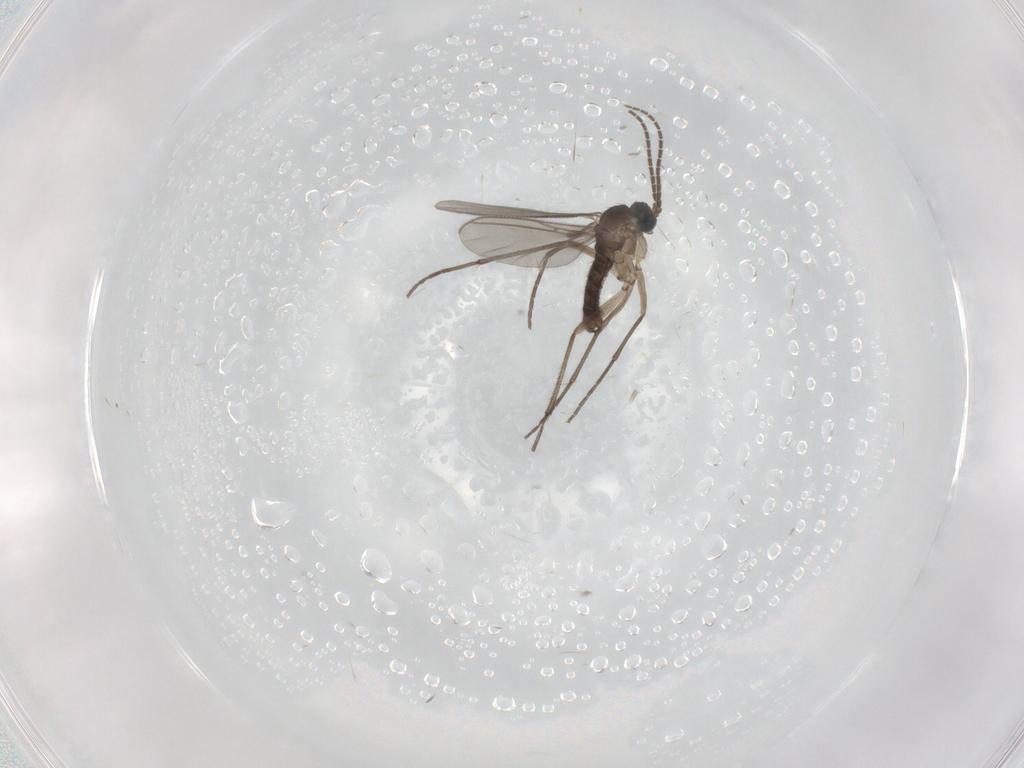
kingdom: Animalia
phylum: Arthropoda
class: Insecta
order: Diptera
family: Sciaridae
